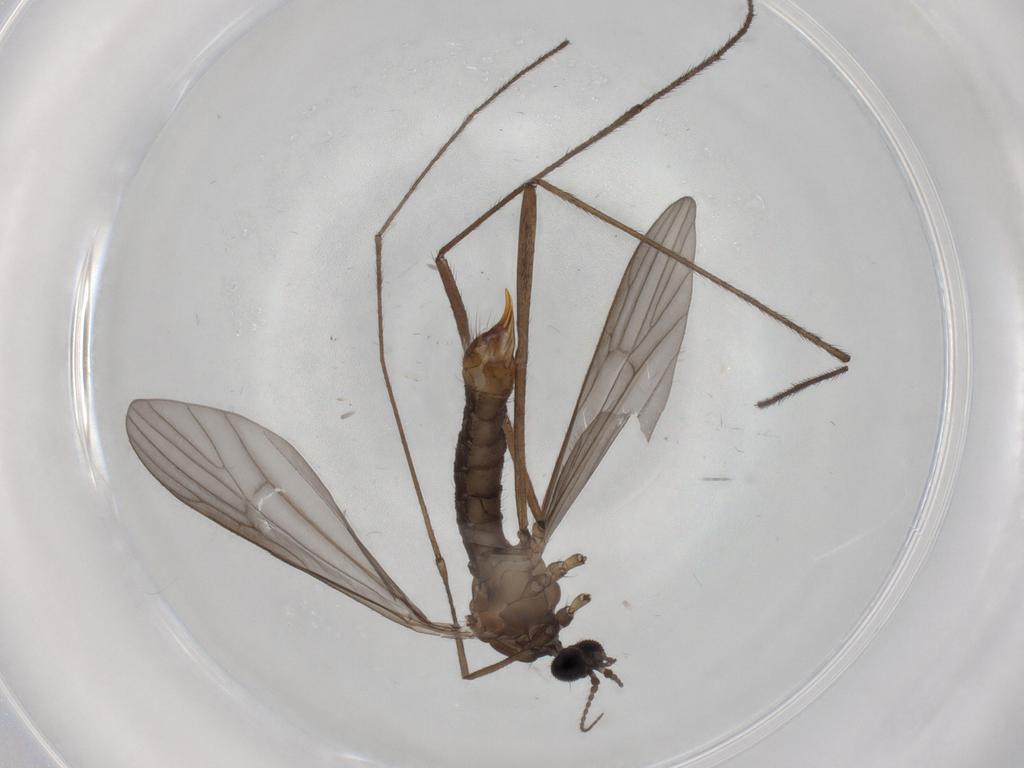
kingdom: Animalia
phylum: Arthropoda
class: Insecta
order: Diptera
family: Limoniidae
